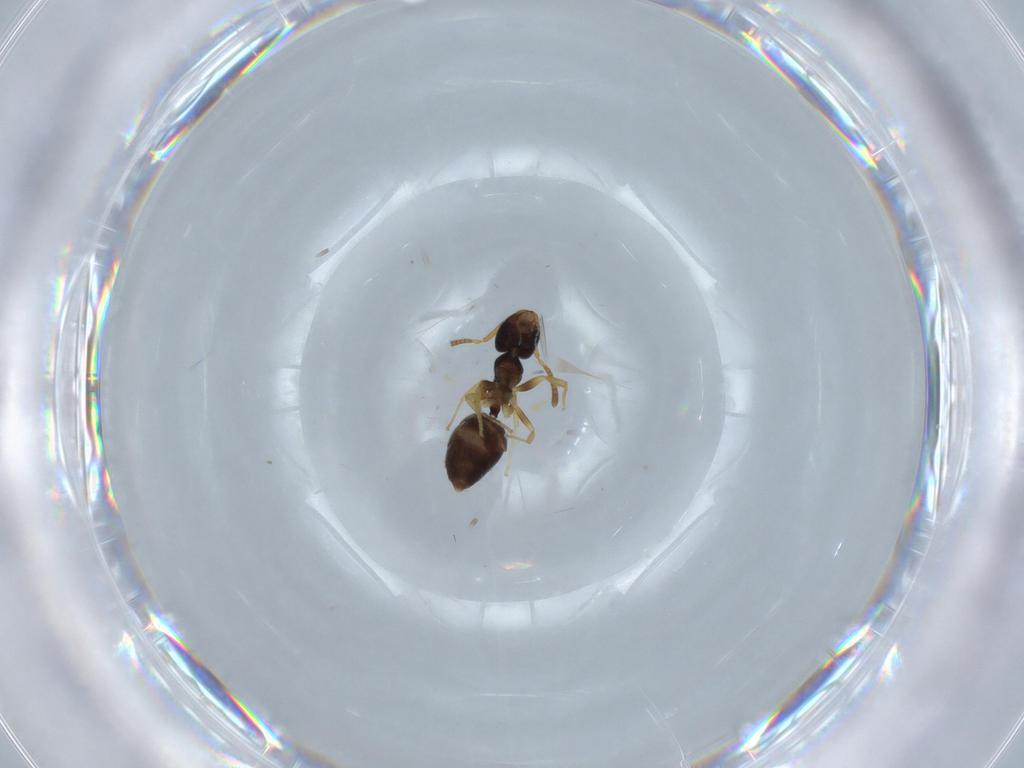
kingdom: Animalia
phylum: Arthropoda
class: Insecta
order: Hymenoptera
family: Formicidae
